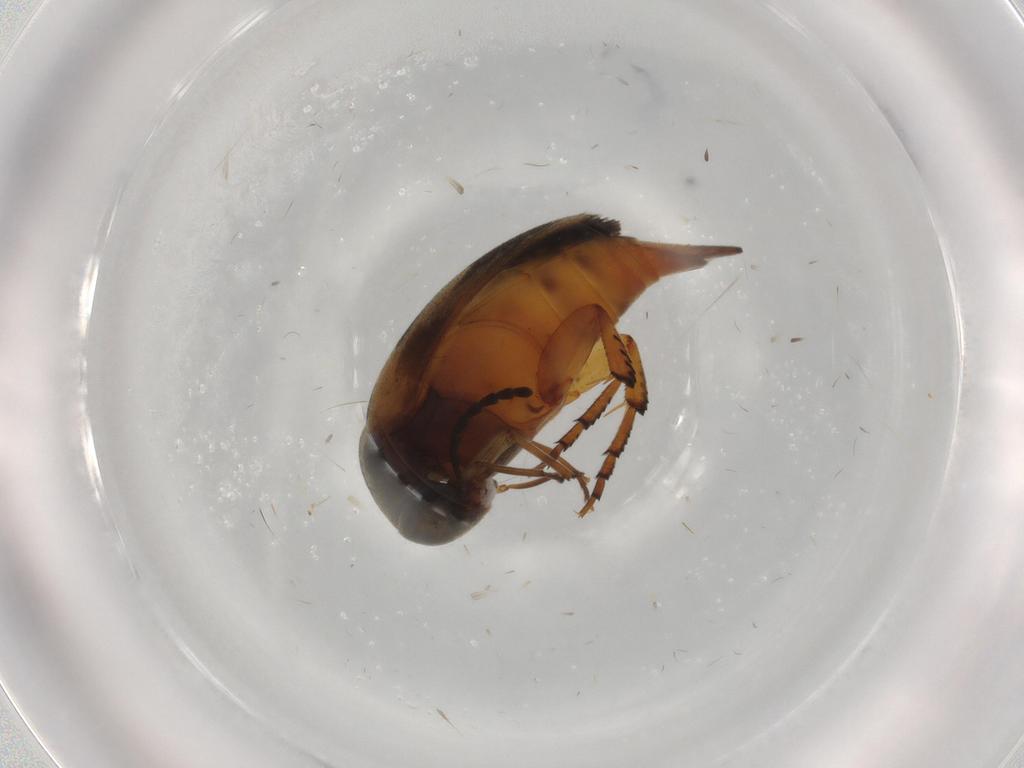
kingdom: Animalia
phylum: Arthropoda
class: Insecta
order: Coleoptera
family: Mordellidae
